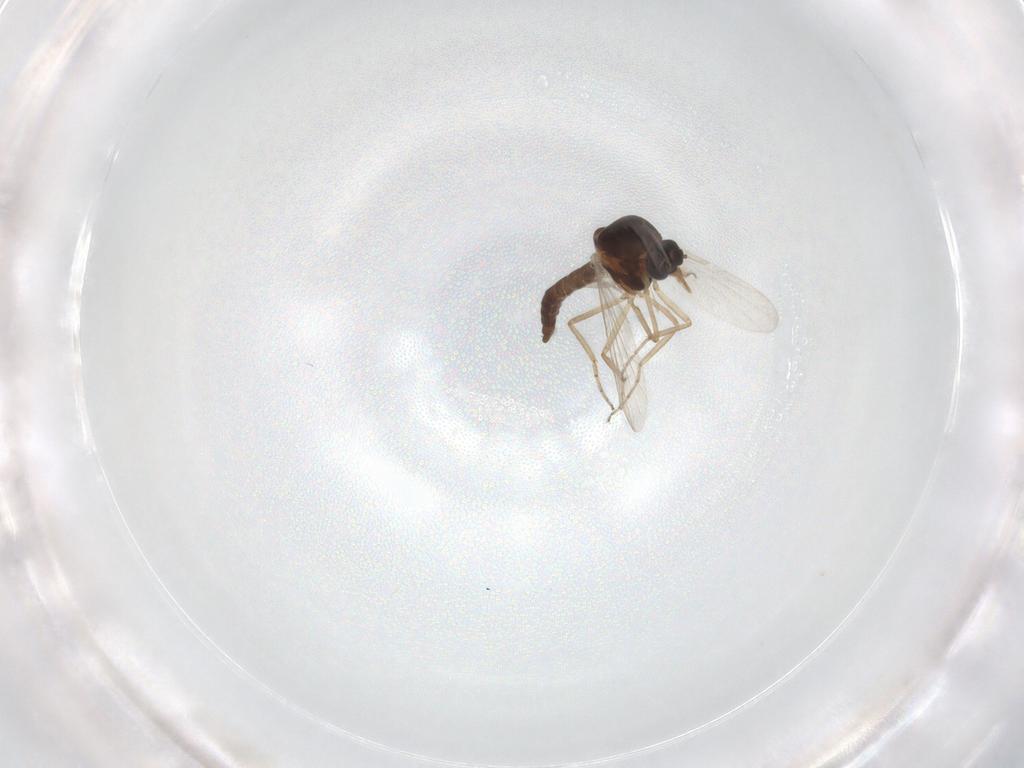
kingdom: Animalia
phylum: Arthropoda
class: Insecta
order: Diptera
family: Ceratopogonidae
